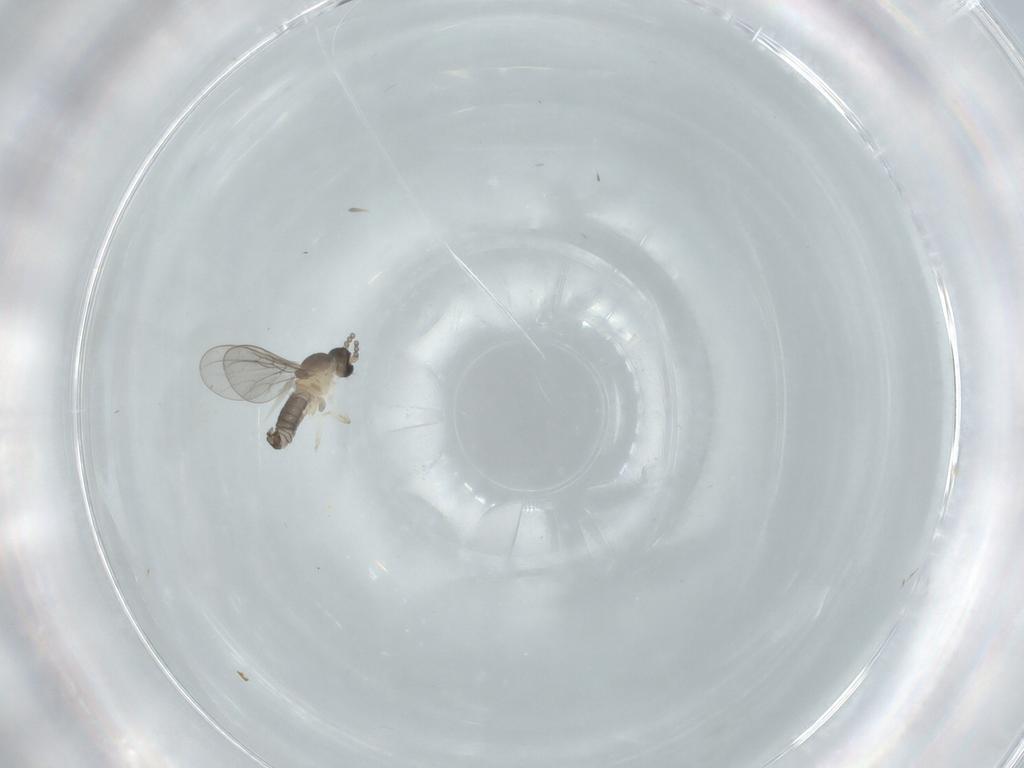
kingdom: Animalia
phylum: Arthropoda
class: Insecta
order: Diptera
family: Cecidomyiidae
